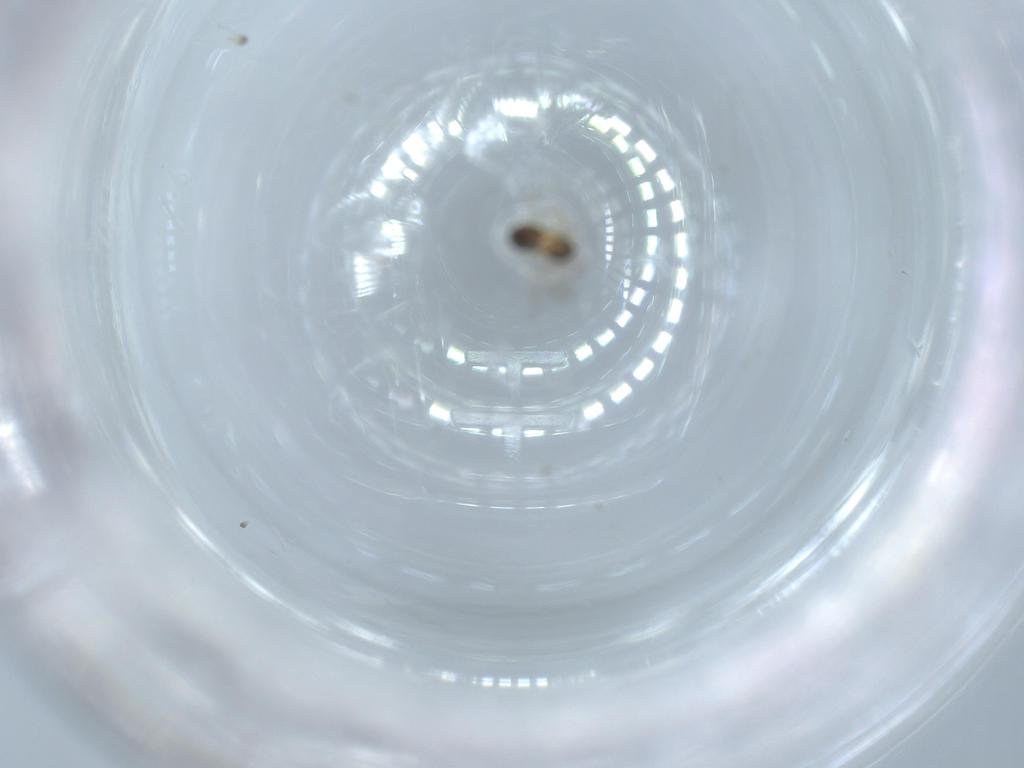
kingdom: Animalia
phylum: Arthropoda
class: Insecta
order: Hymenoptera
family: Scelionidae
